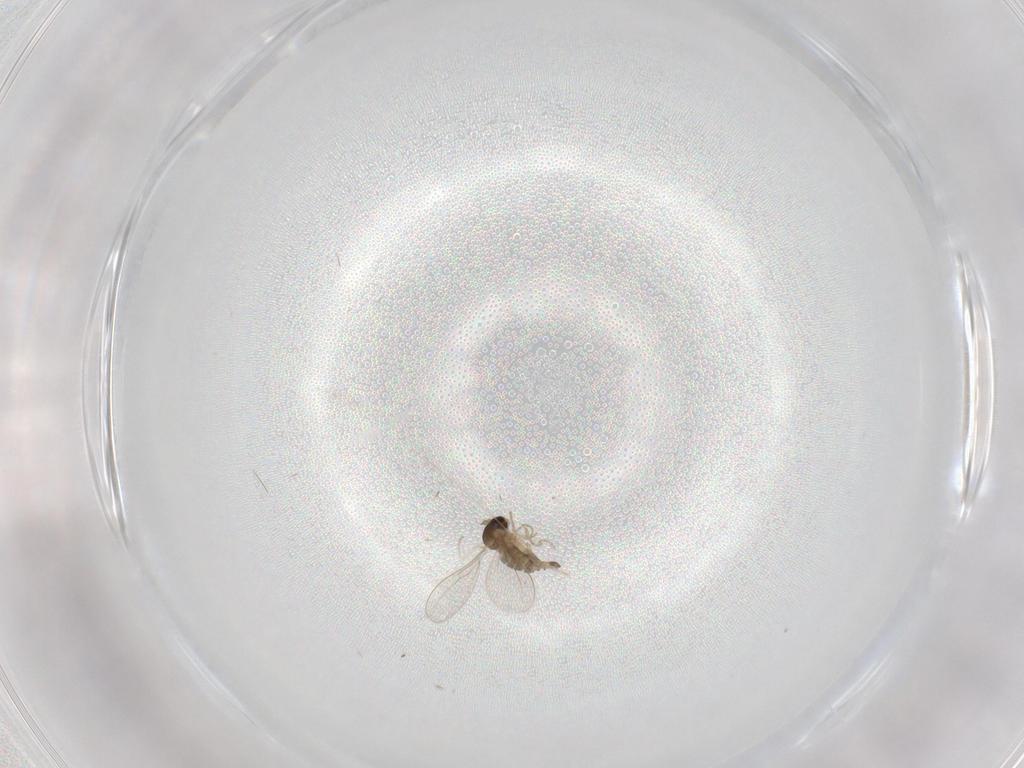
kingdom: Animalia
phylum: Arthropoda
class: Insecta
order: Diptera
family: Cecidomyiidae
